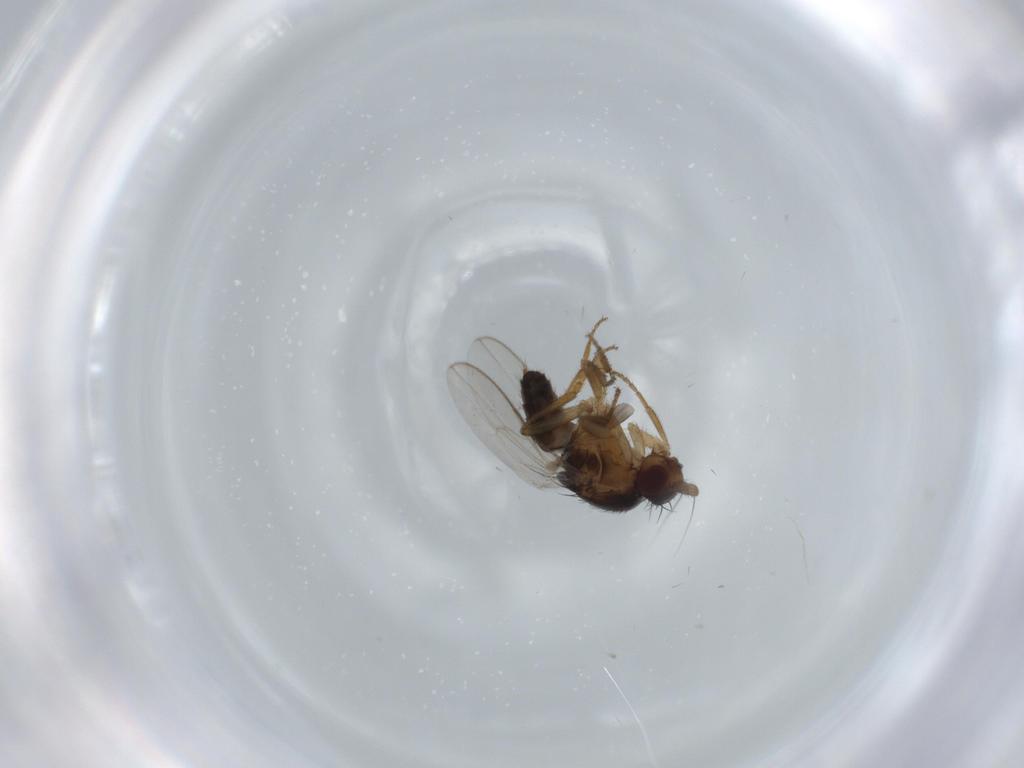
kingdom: Animalia
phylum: Arthropoda
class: Insecta
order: Diptera
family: Sphaeroceridae
